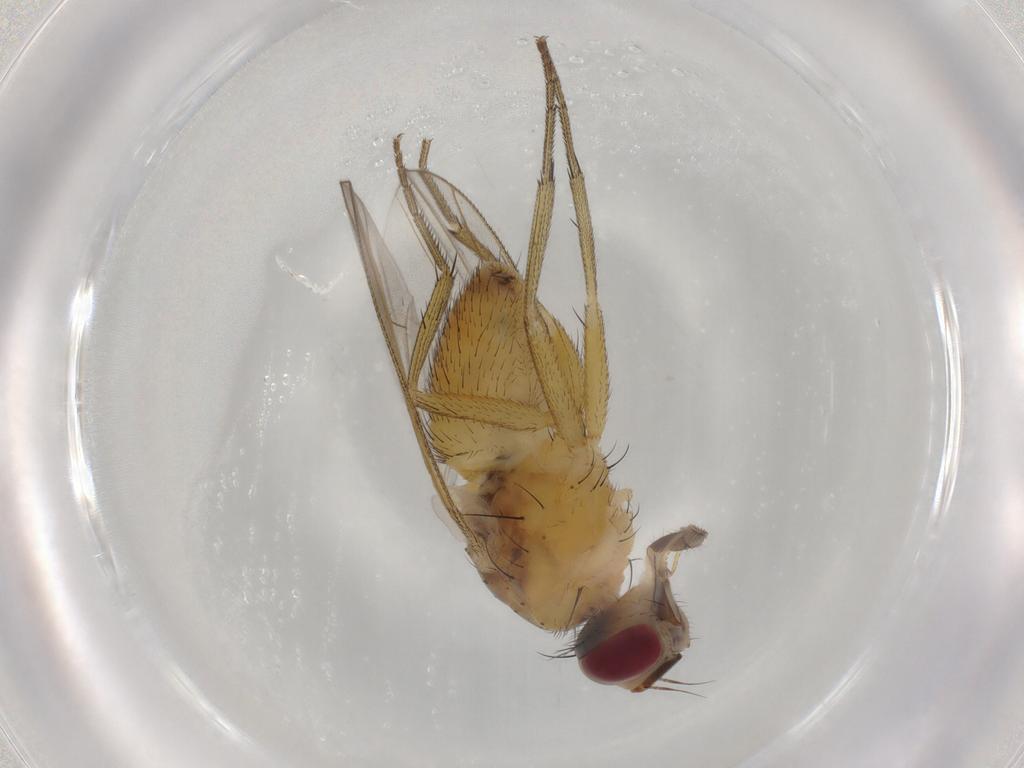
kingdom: Animalia
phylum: Arthropoda
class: Insecta
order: Diptera
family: Muscidae
